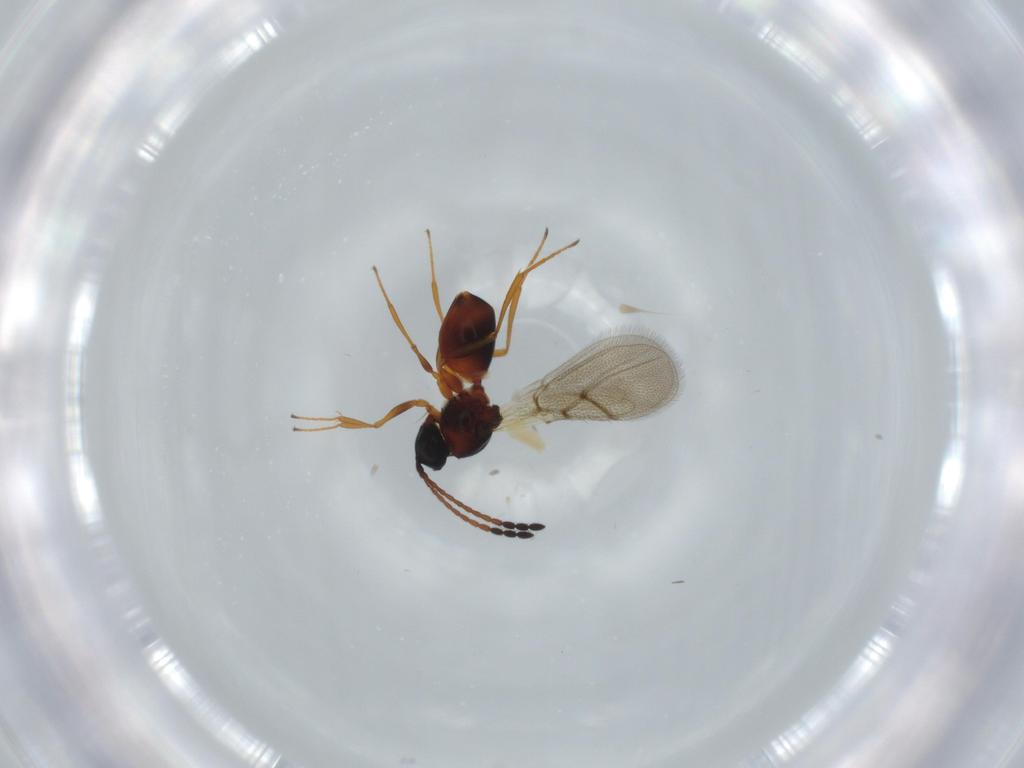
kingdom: Animalia
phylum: Arthropoda
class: Insecta
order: Hymenoptera
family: Figitidae
